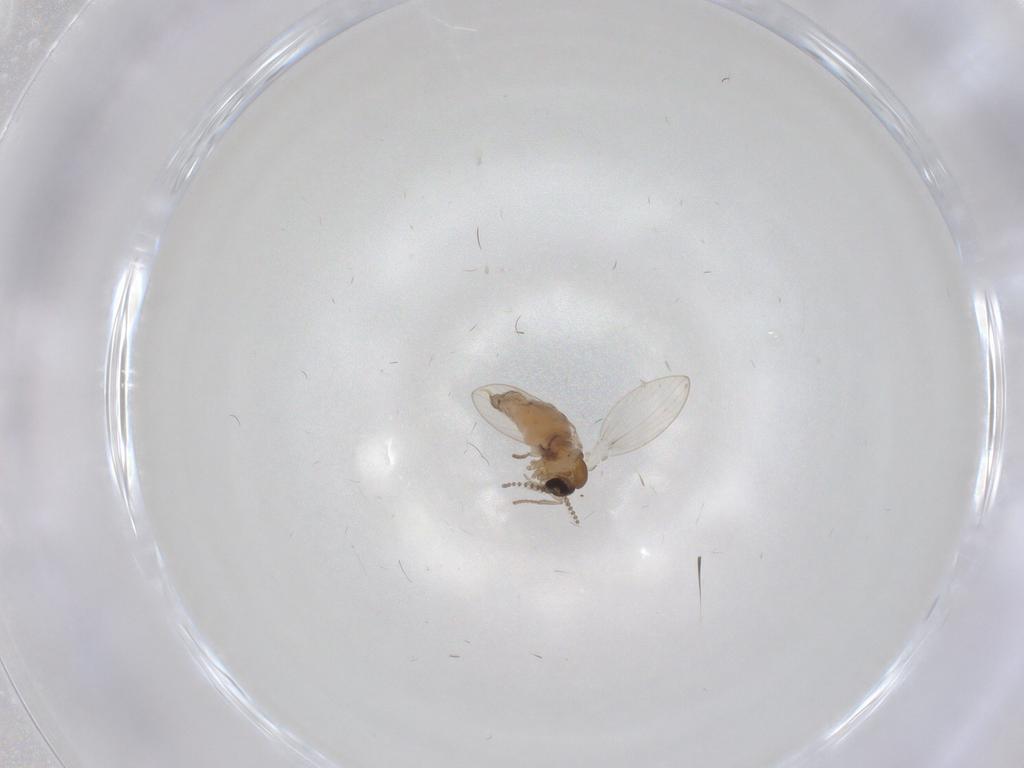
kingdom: Animalia
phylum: Arthropoda
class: Insecta
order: Diptera
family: Psychodidae
